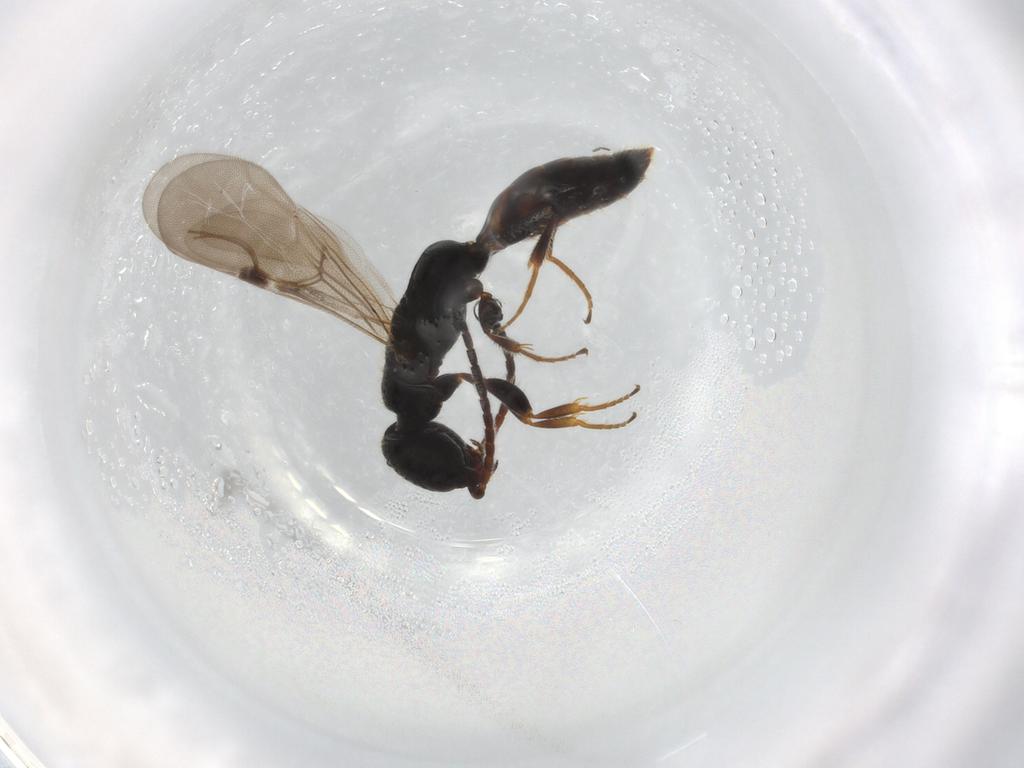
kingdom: Animalia
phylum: Arthropoda
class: Insecta
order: Hymenoptera
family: Bethylidae
